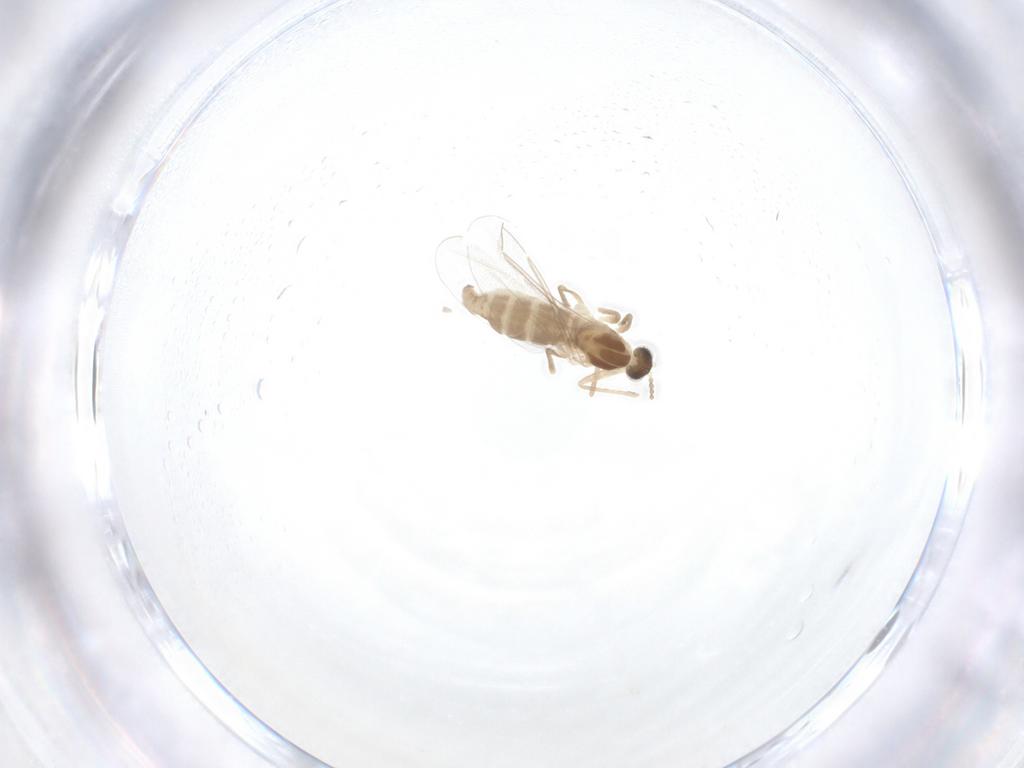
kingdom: Animalia
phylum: Arthropoda
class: Insecta
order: Diptera
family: Cecidomyiidae
